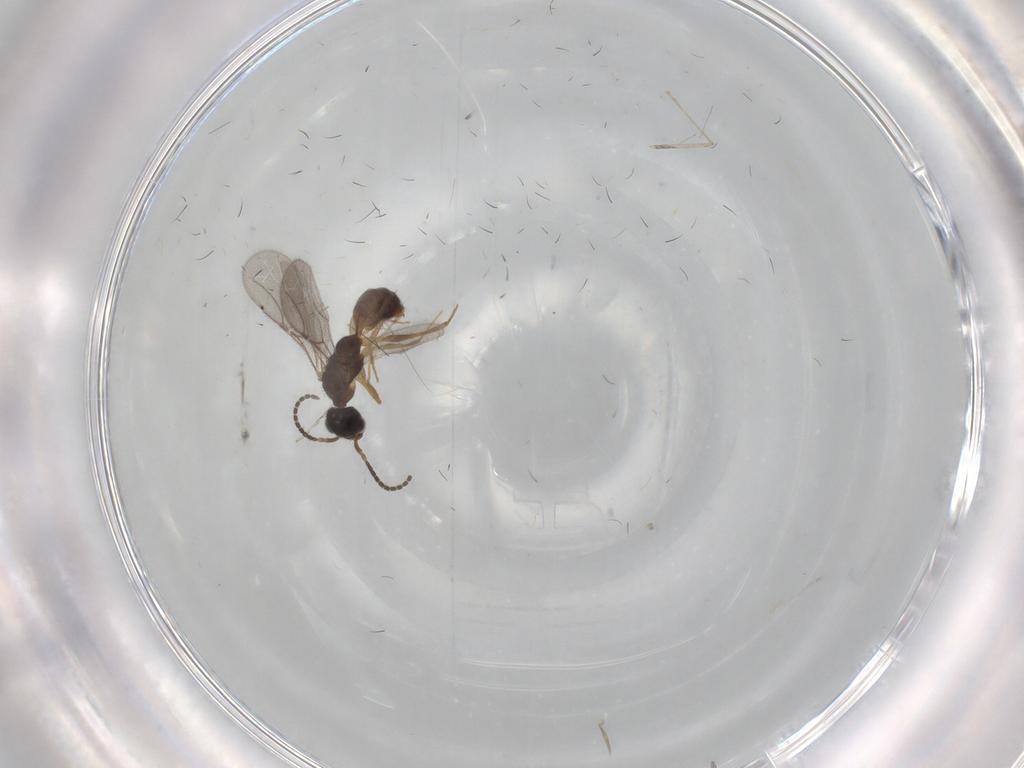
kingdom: Animalia
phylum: Arthropoda
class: Insecta
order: Hymenoptera
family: Bethylidae
